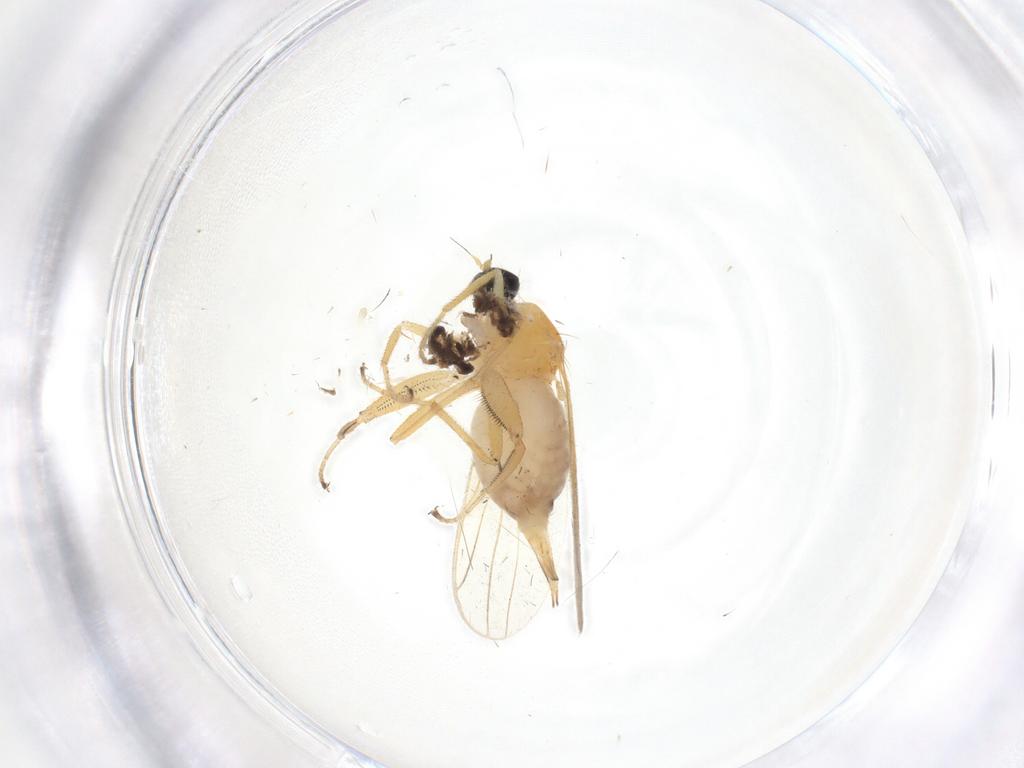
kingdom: Animalia
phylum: Arthropoda
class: Insecta
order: Diptera
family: Hybotidae
